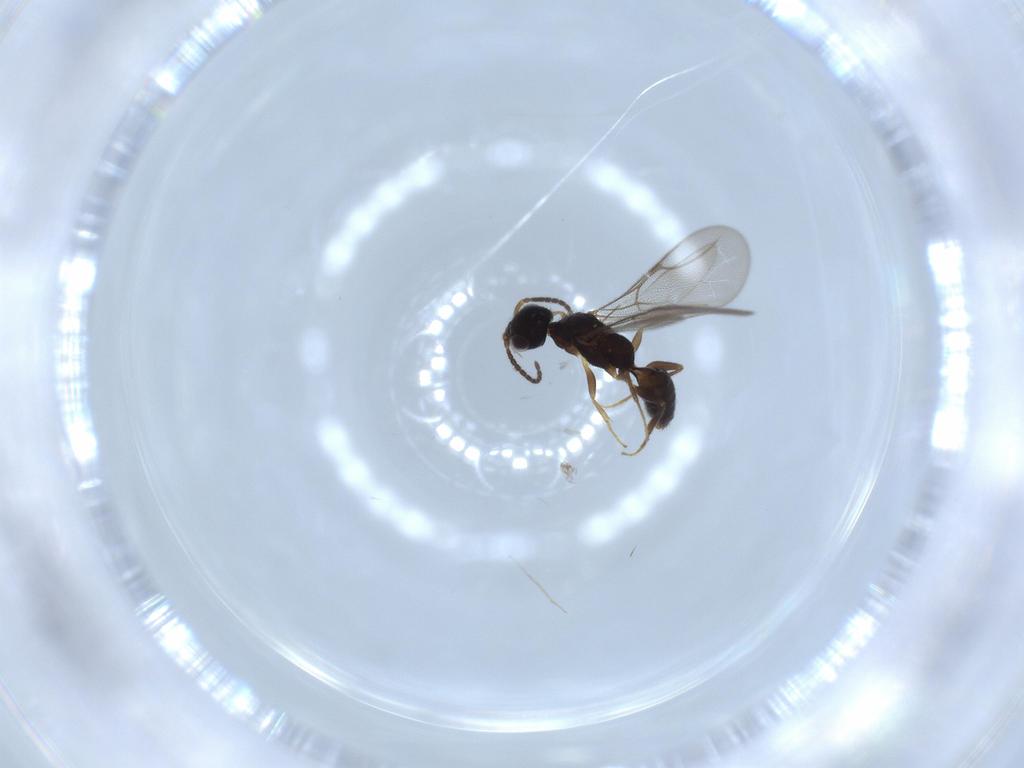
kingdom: Animalia
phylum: Arthropoda
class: Insecta
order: Hymenoptera
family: Bethylidae
